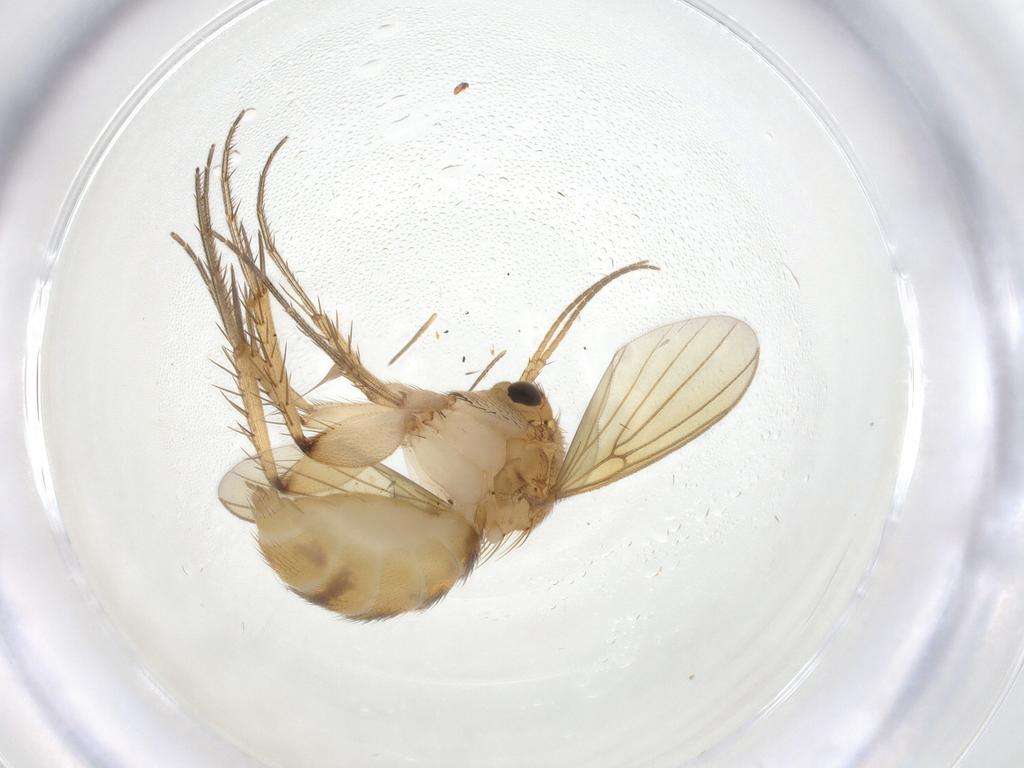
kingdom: Animalia
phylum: Arthropoda
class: Insecta
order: Diptera
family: Mycetophilidae
